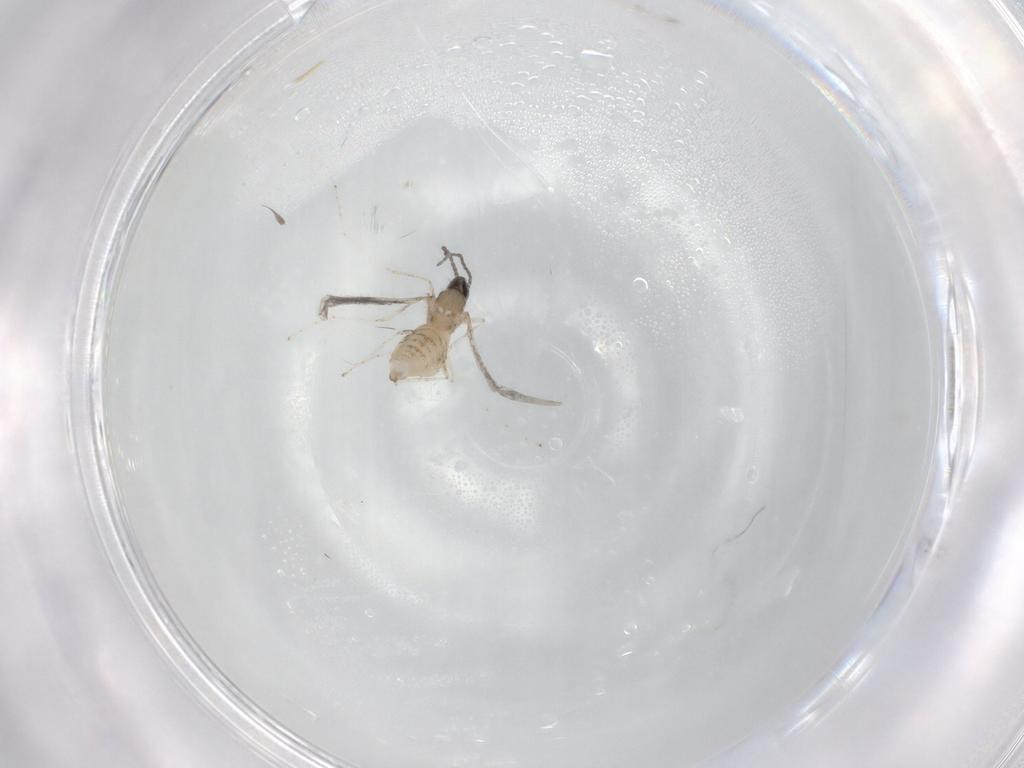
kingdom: Animalia
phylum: Arthropoda
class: Insecta
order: Diptera
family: Cecidomyiidae
